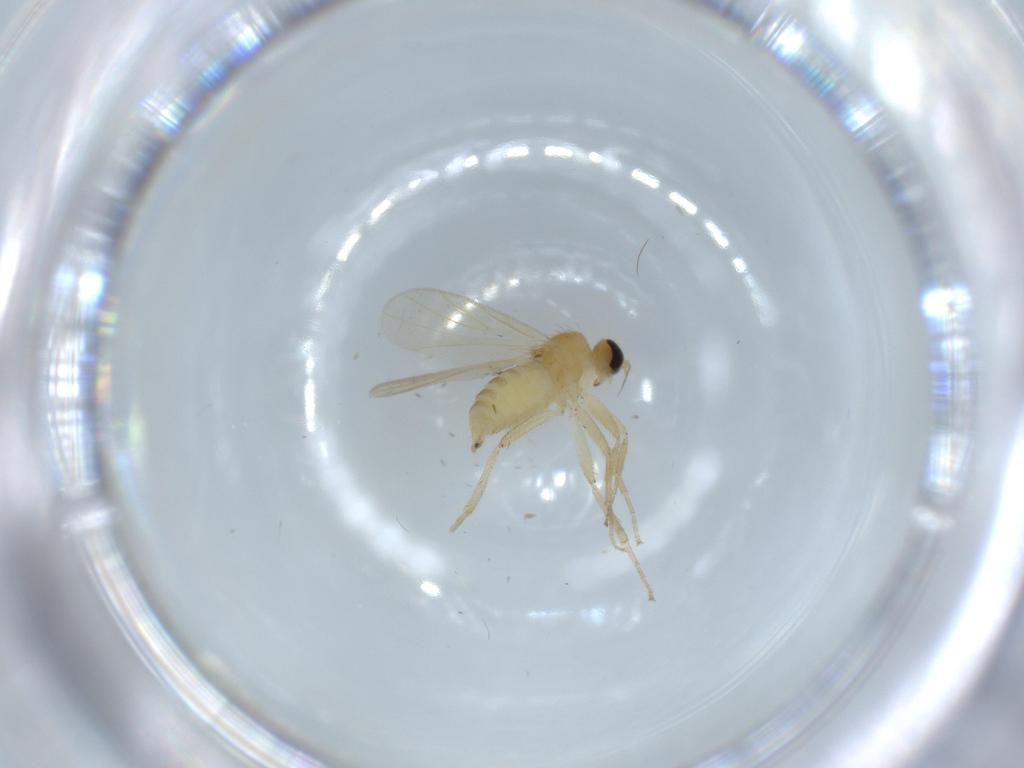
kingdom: Animalia
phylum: Arthropoda
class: Insecta
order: Diptera
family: Hybotidae
